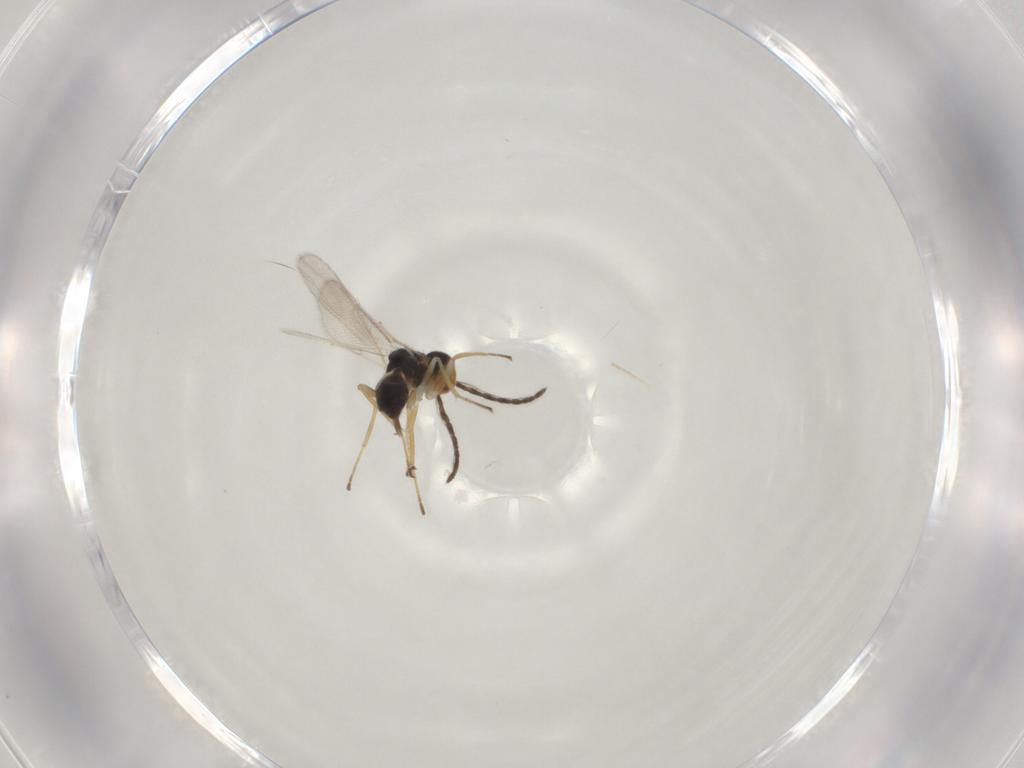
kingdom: Animalia
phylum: Arthropoda
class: Insecta
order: Hymenoptera
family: Eulophidae
